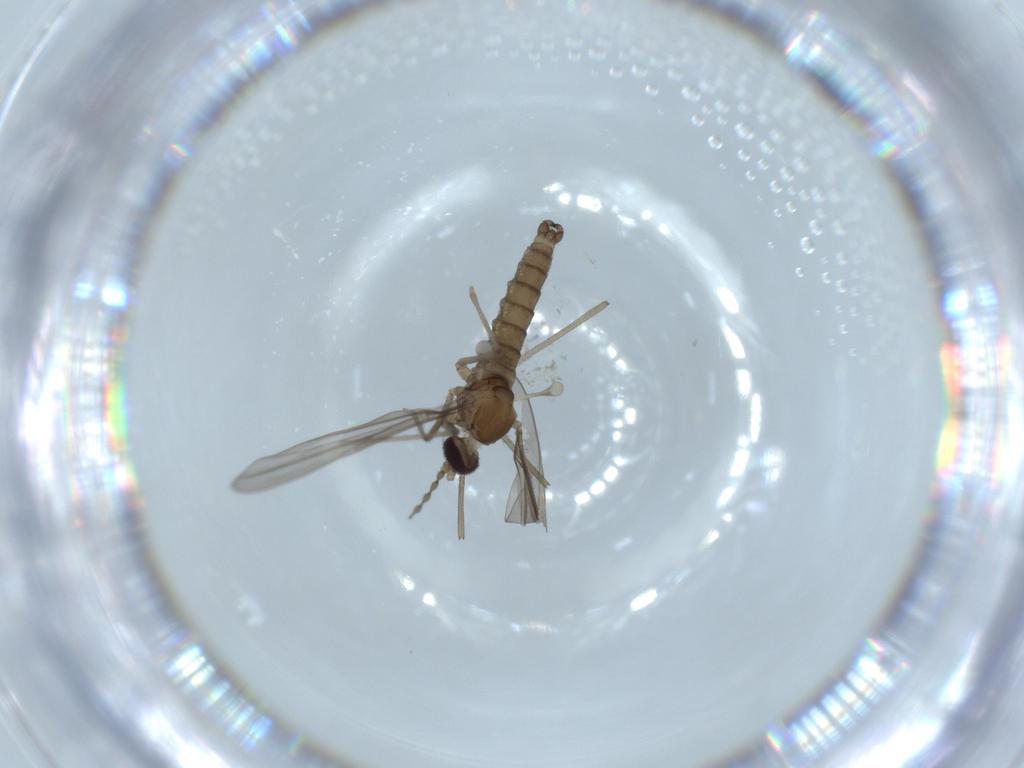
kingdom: Animalia
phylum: Arthropoda
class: Insecta
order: Diptera
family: Cecidomyiidae
